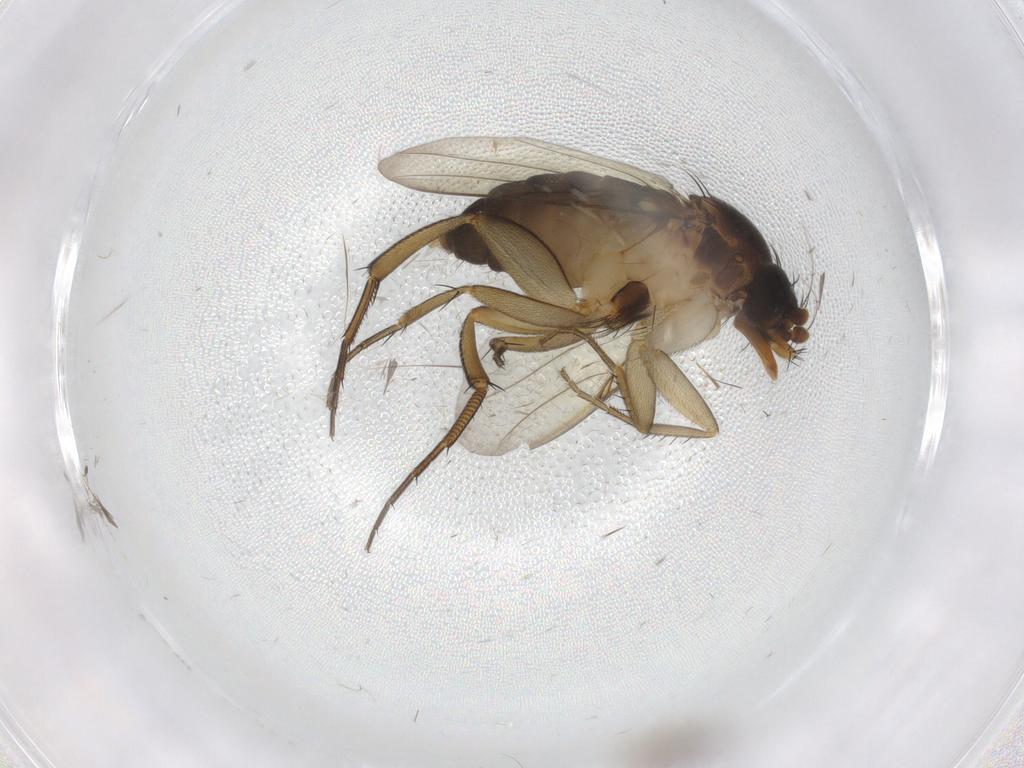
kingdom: Animalia
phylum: Arthropoda
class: Insecta
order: Diptera
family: Phoridae
